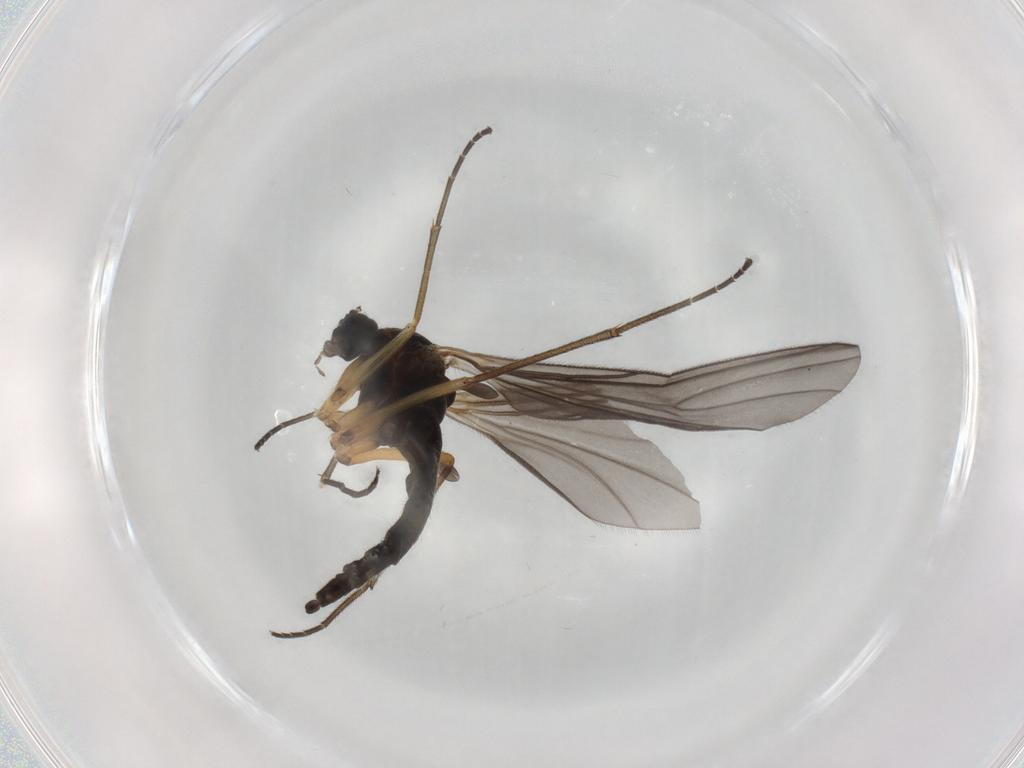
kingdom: Animalia
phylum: Arthropoda
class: Insecta
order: Diptera
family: Sciaridae
